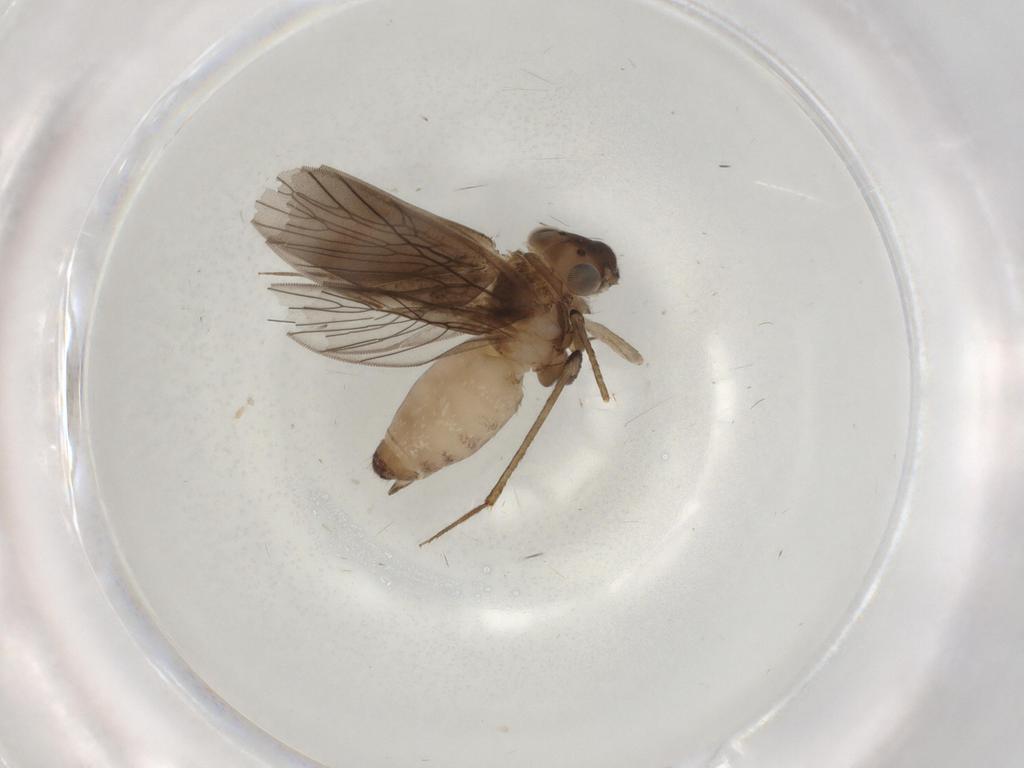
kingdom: Animalia
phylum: Arthropoda
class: Insecta
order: Psocodea
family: Lepidopsocidae
